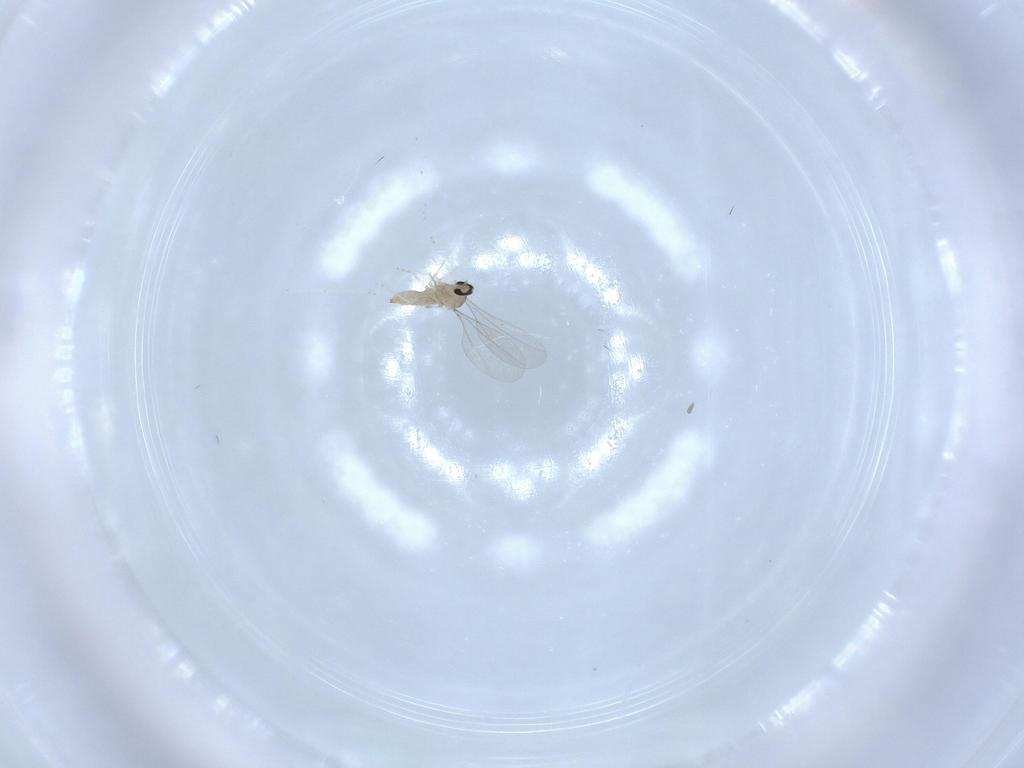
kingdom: Animalia
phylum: Arthropoda
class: Insecta
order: Diptera
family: Cecidomyiidae
